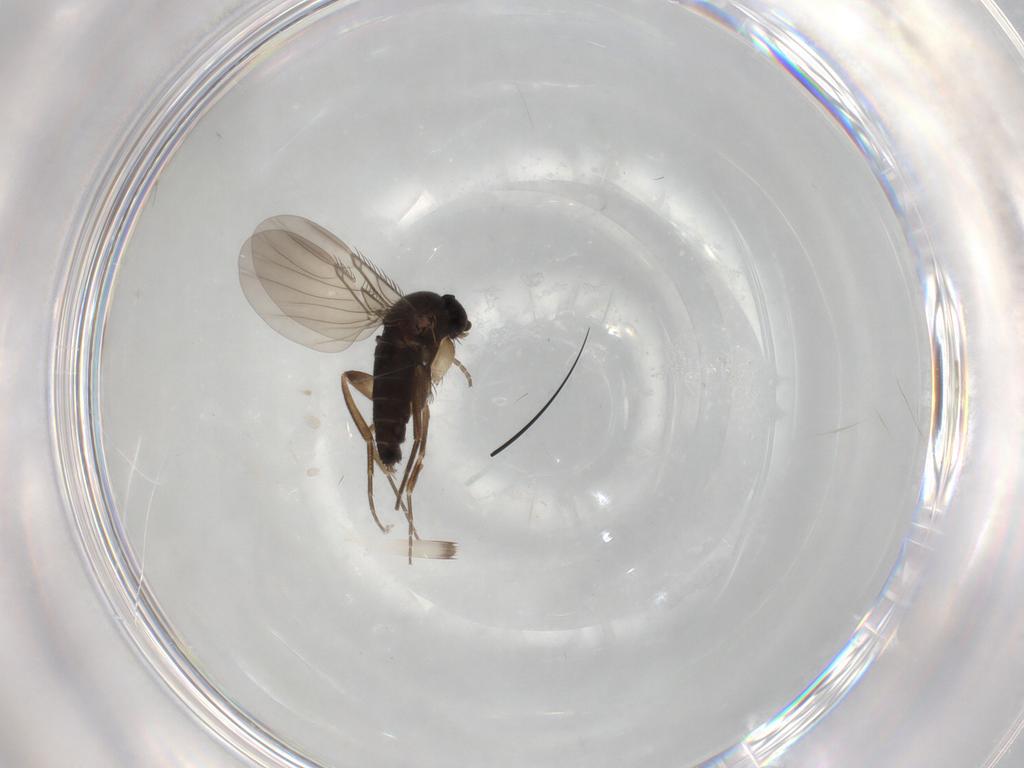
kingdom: Animalia
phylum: Arthropoda
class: Insecta
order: Diptera
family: Phoridae
